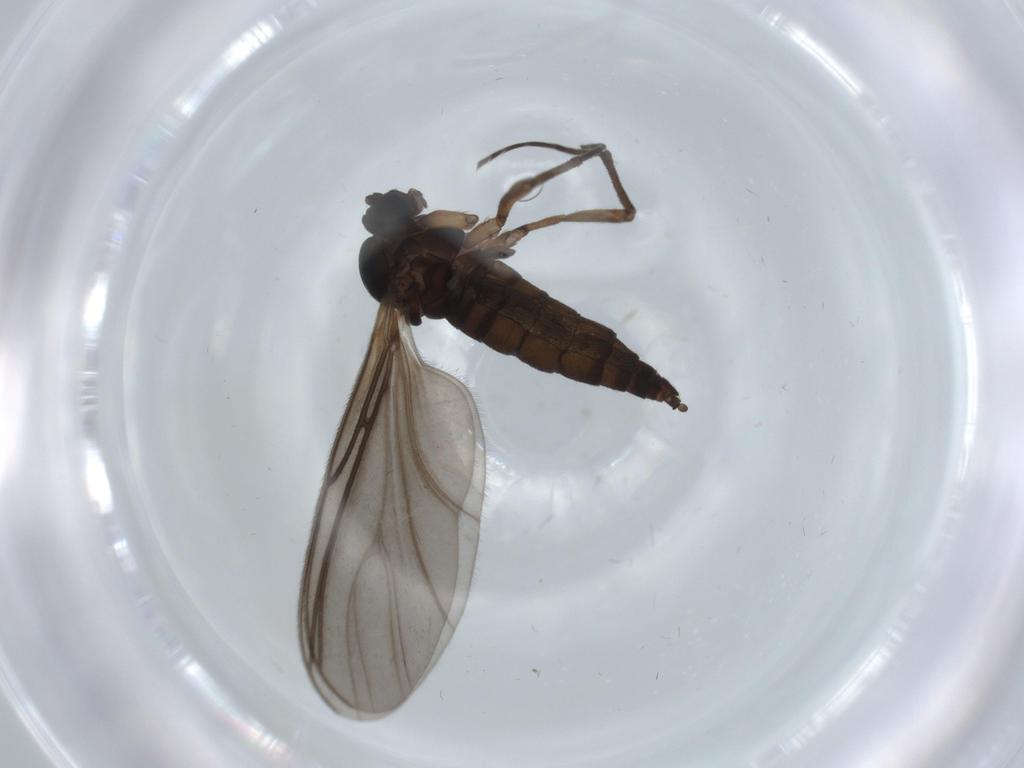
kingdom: Animalia
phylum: Arthropoda
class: Insecta
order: Diptera
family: Sciaridae
